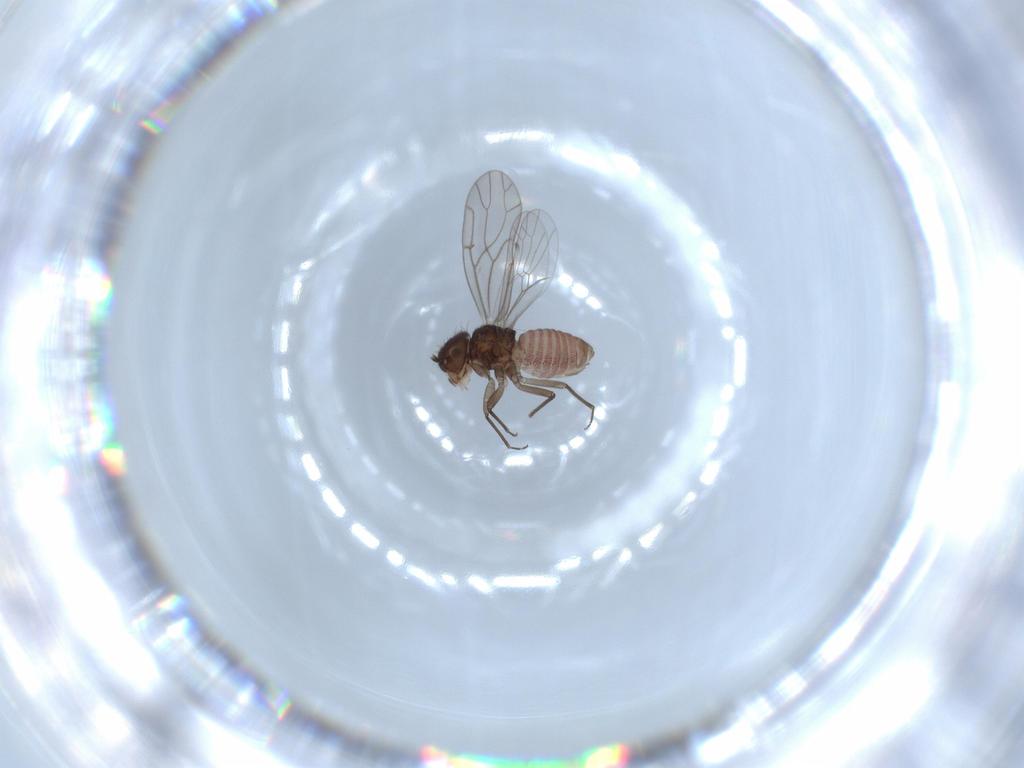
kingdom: Animalia
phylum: Arthropoda
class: Insecta
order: Psocodea
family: Ectopsocidae
